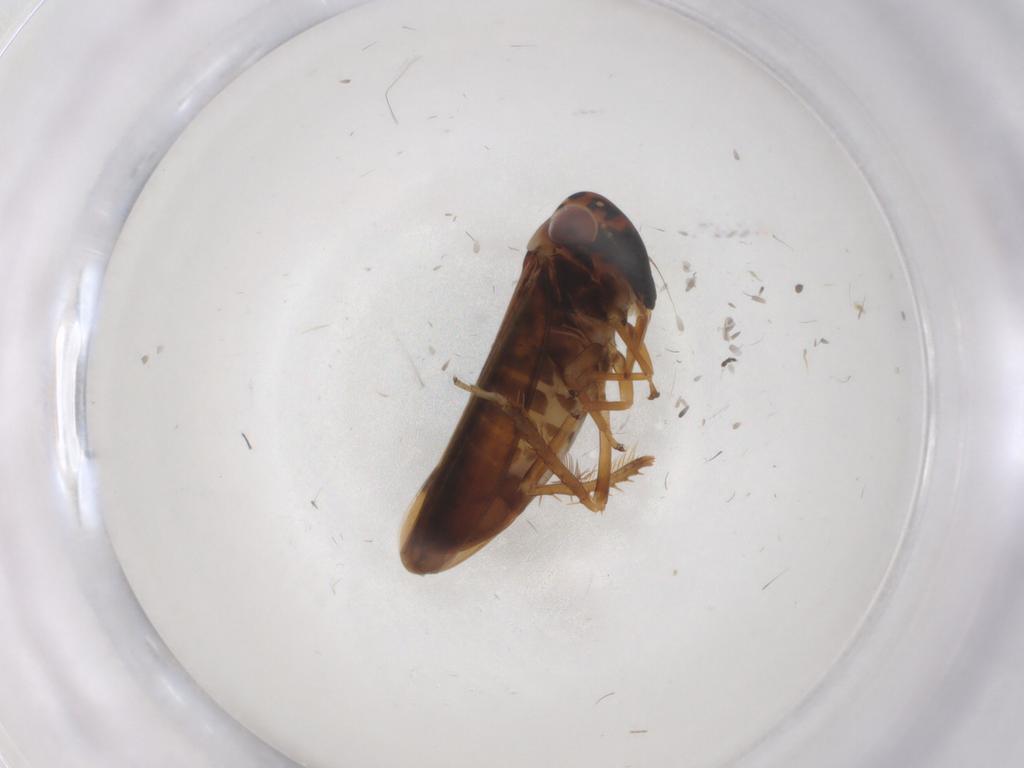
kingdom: Animalia
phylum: Arthropoda
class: Insecta
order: Hemiptera
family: Cicadellidae
